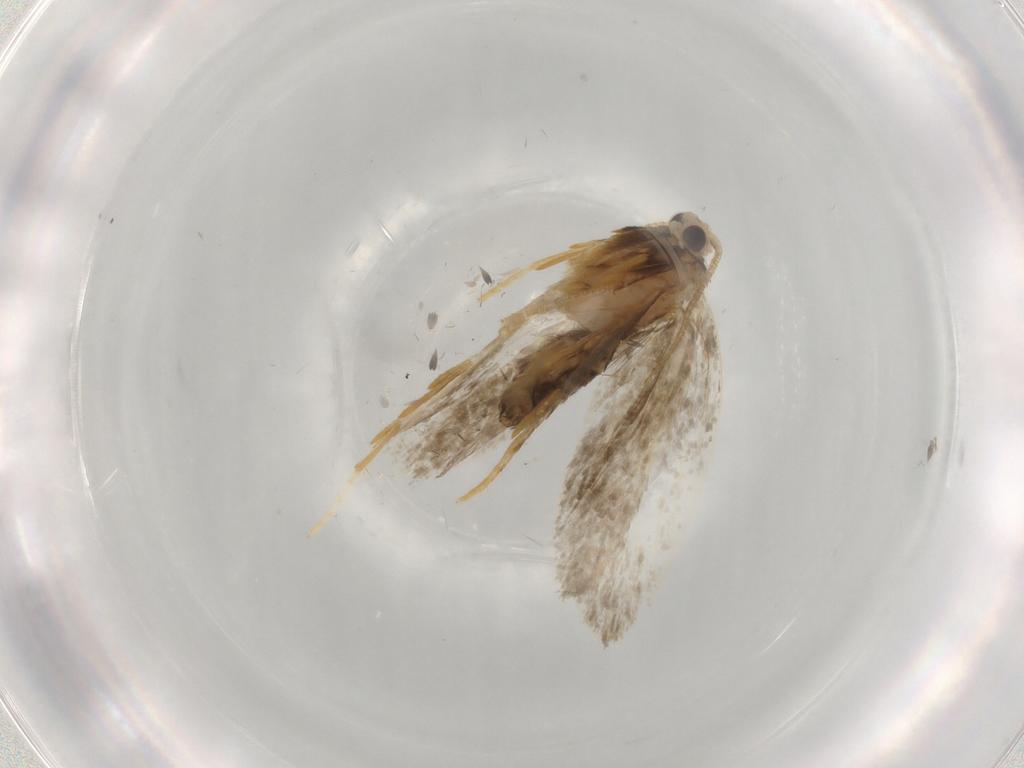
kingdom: Animalia
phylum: Arthropoda
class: Insecta
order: Lepidoptera
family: Psychidae
